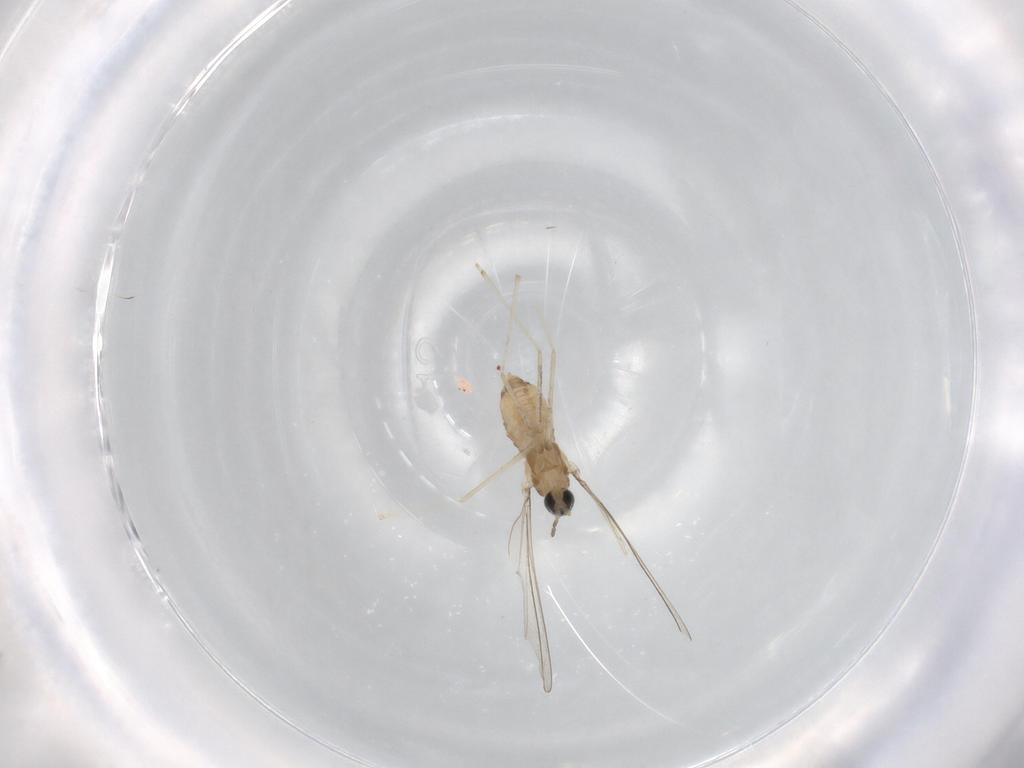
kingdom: Animalia
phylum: Arthropoda
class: Insecta
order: Diptera
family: Cecidomyiidae
